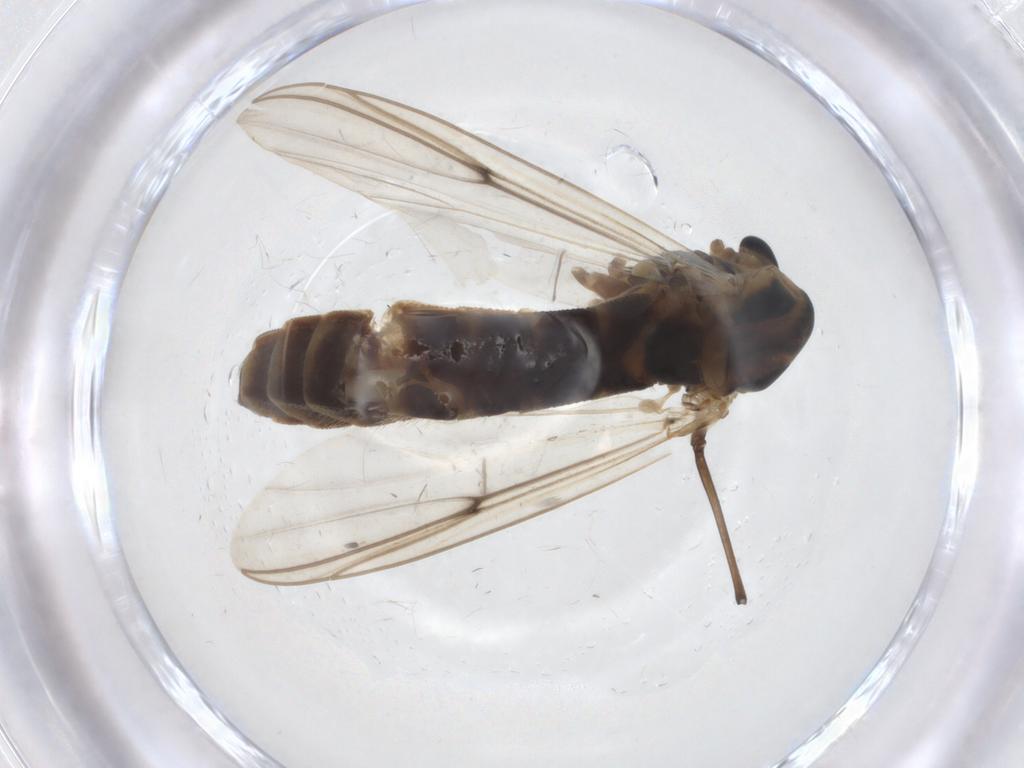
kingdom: Animalia
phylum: Arthropoda
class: Insecta
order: Diptera
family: Chironomidae
